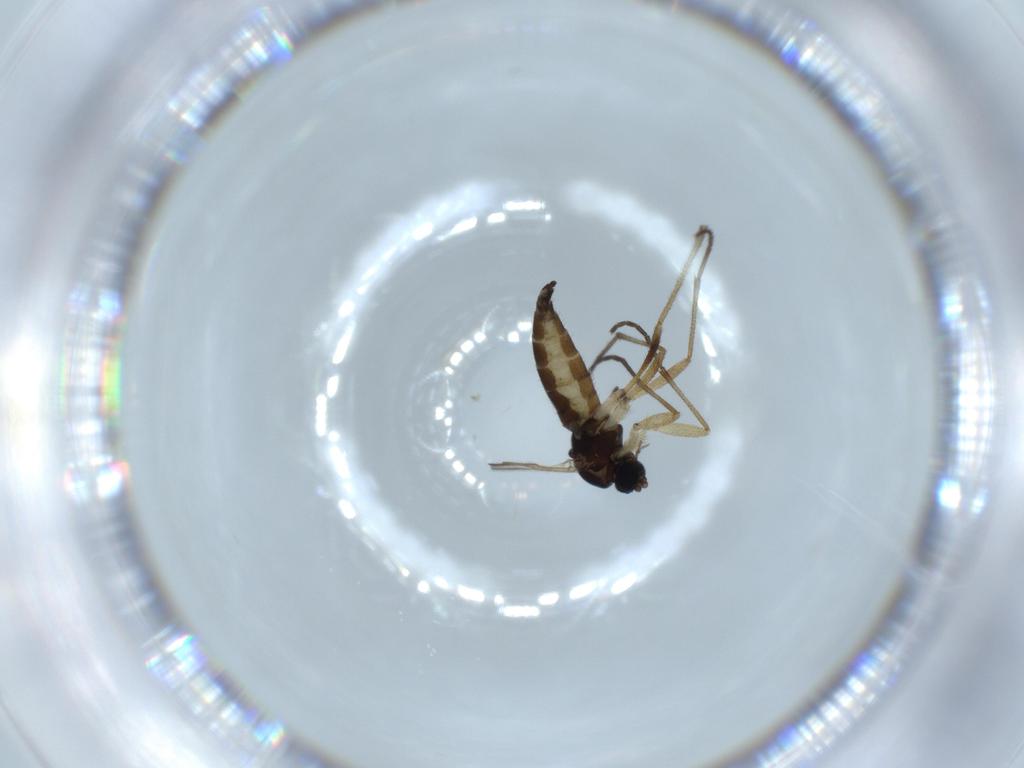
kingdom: Animalia
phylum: Arthropoda
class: Insecta
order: Diptera
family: Sciaridae
